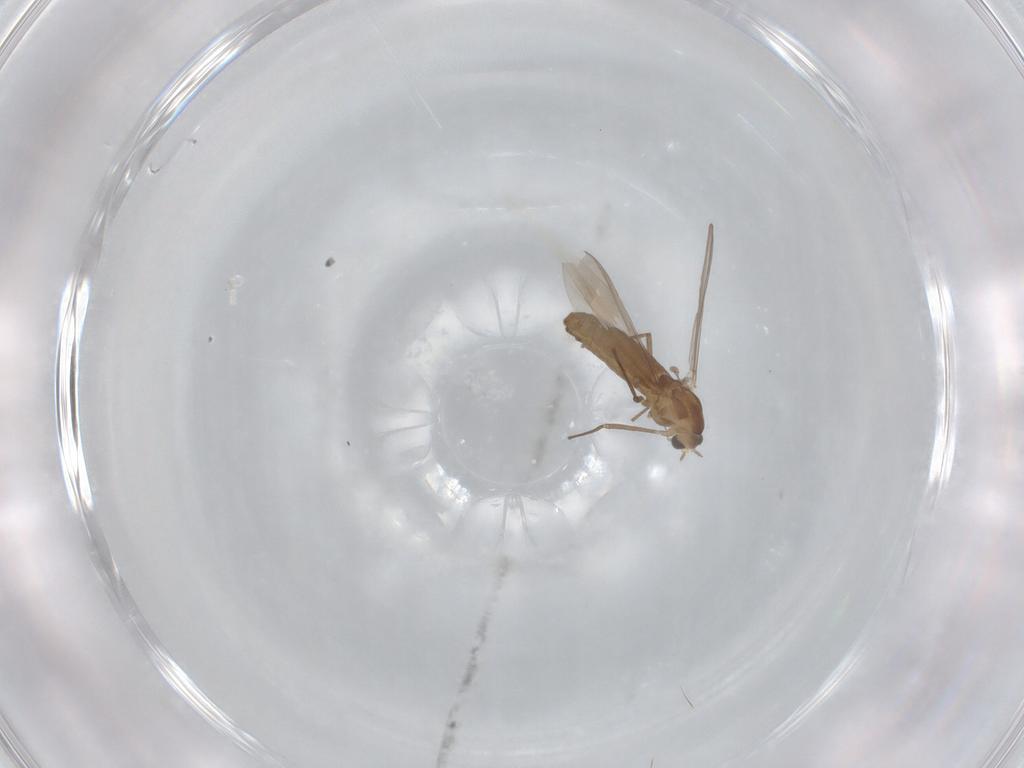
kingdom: Animalia
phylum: Arthropoda
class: Insecta
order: Diptera
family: Chironomidae
